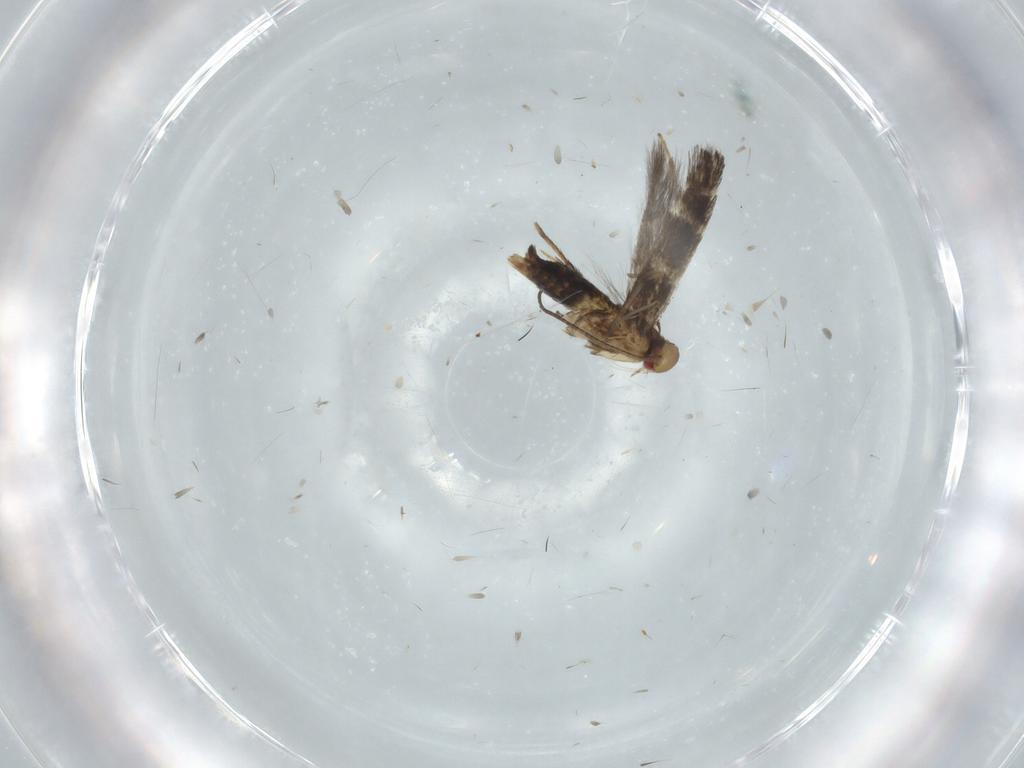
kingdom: Animalia
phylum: Arthropoda
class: Insecta
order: Lepidoptera
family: Gracillariidae
